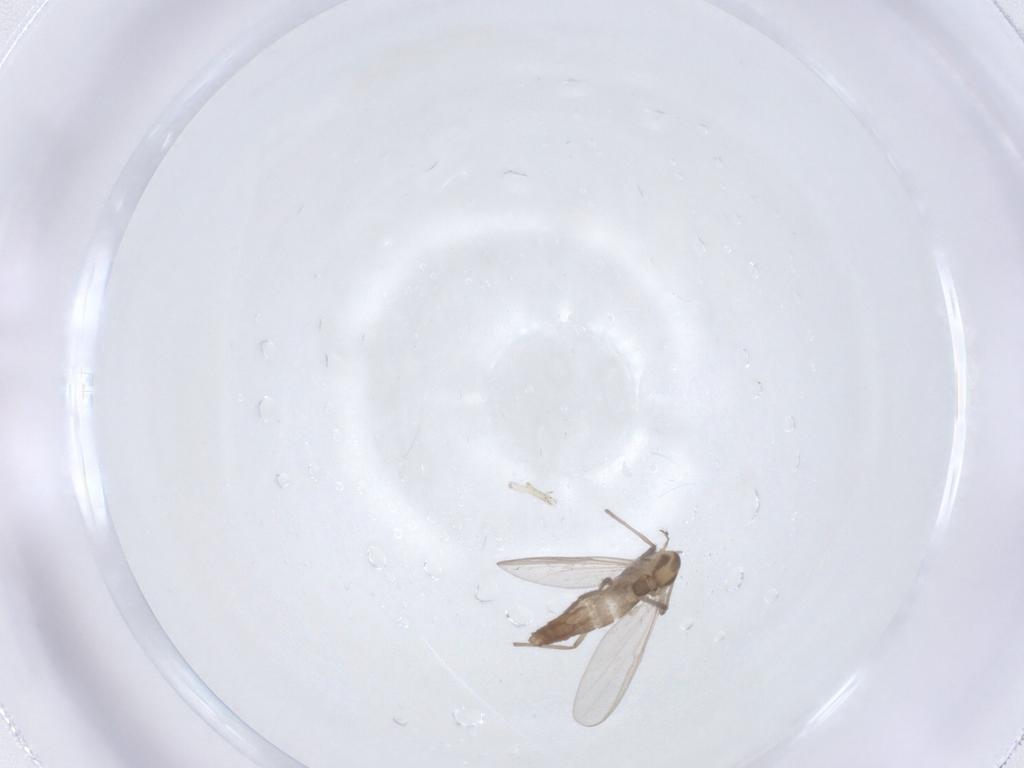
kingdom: Animalia
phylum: Arthropoda
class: Insecta
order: Diptera
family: Chironomidae
